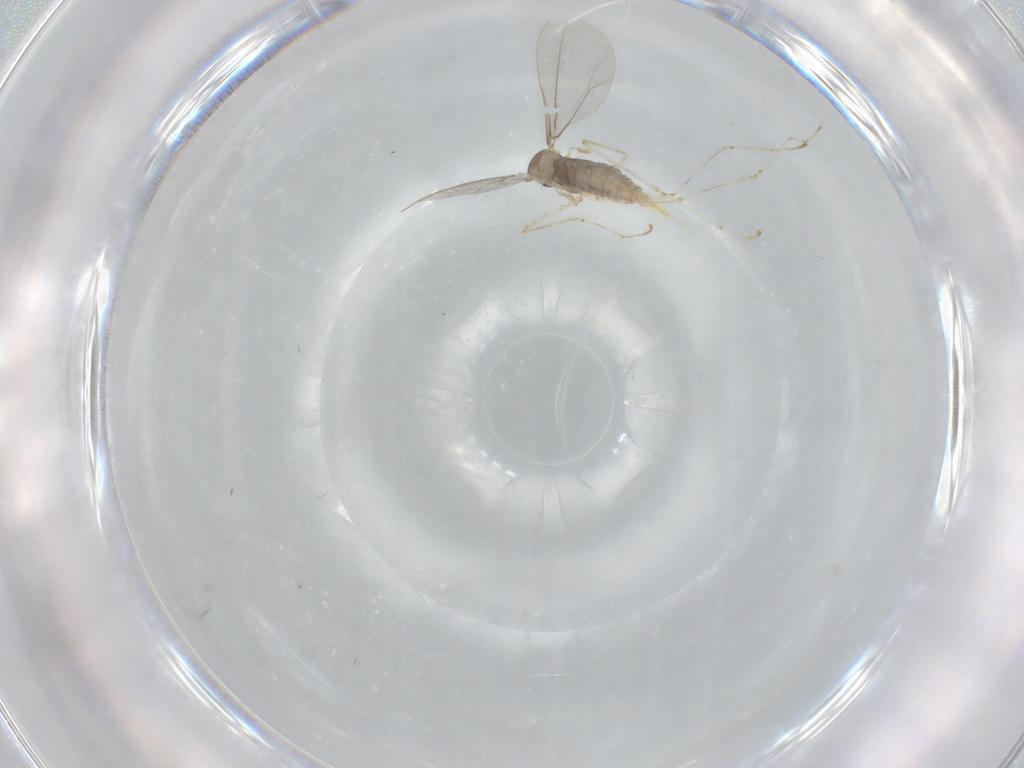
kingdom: Animalia
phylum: Arthropoda
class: Insecta
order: Diptera
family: Cecidomyiidae
